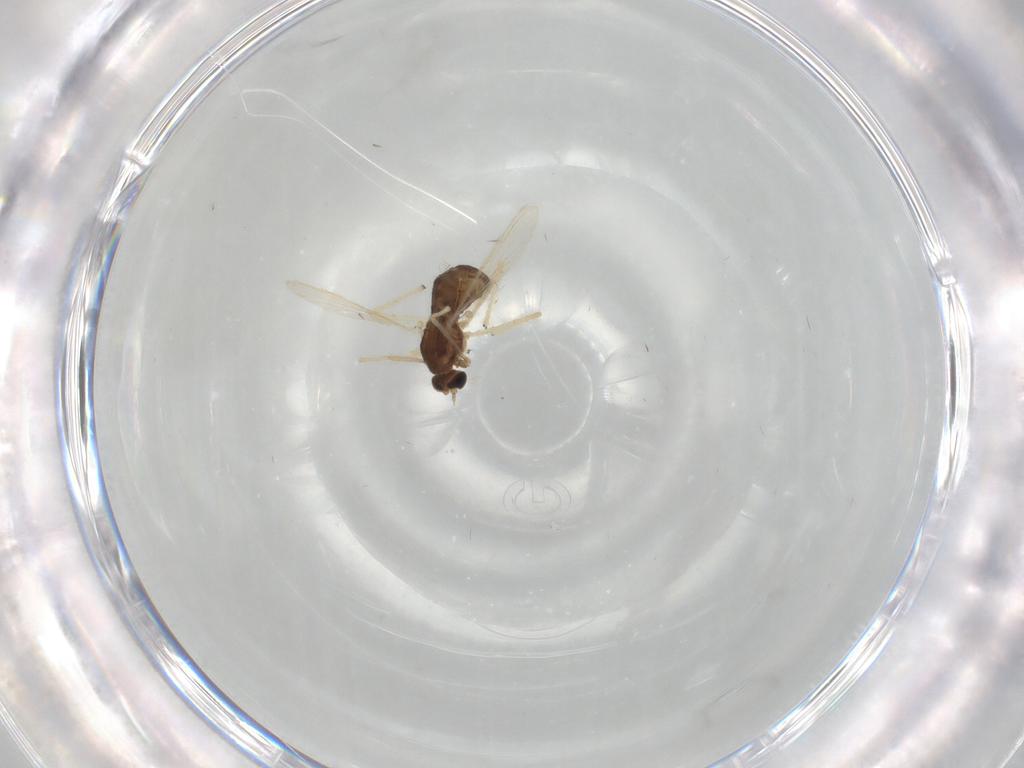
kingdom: Animalia
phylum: Arthropoda
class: Insecta
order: Diptera
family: Chironomidae
